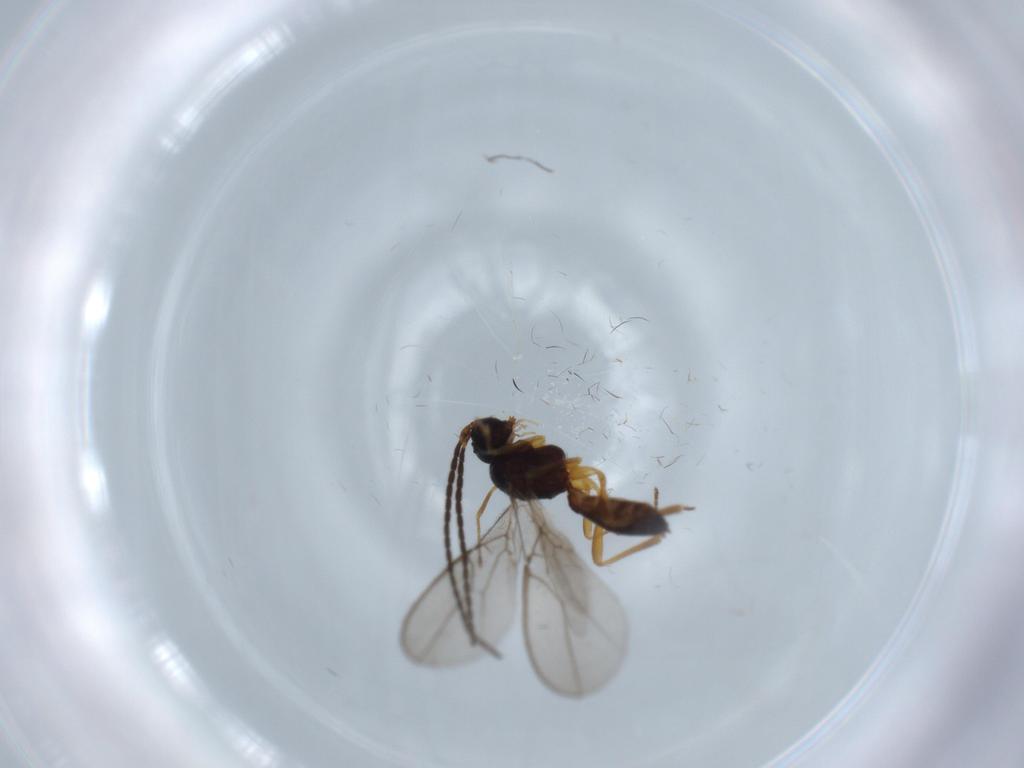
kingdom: Animalia
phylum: Arthropoda
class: Insecta
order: Hymenoptera
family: Braconidae
